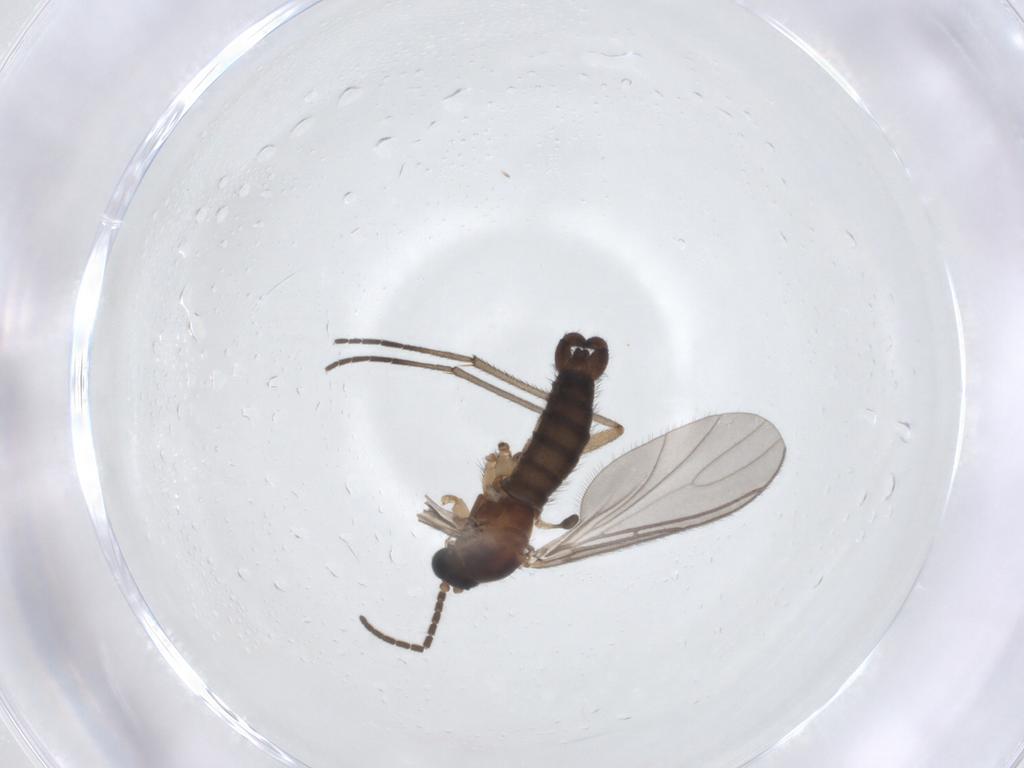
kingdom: Animalia
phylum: Arthropoda
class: Insecta
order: Diptera
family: Sciaridae
